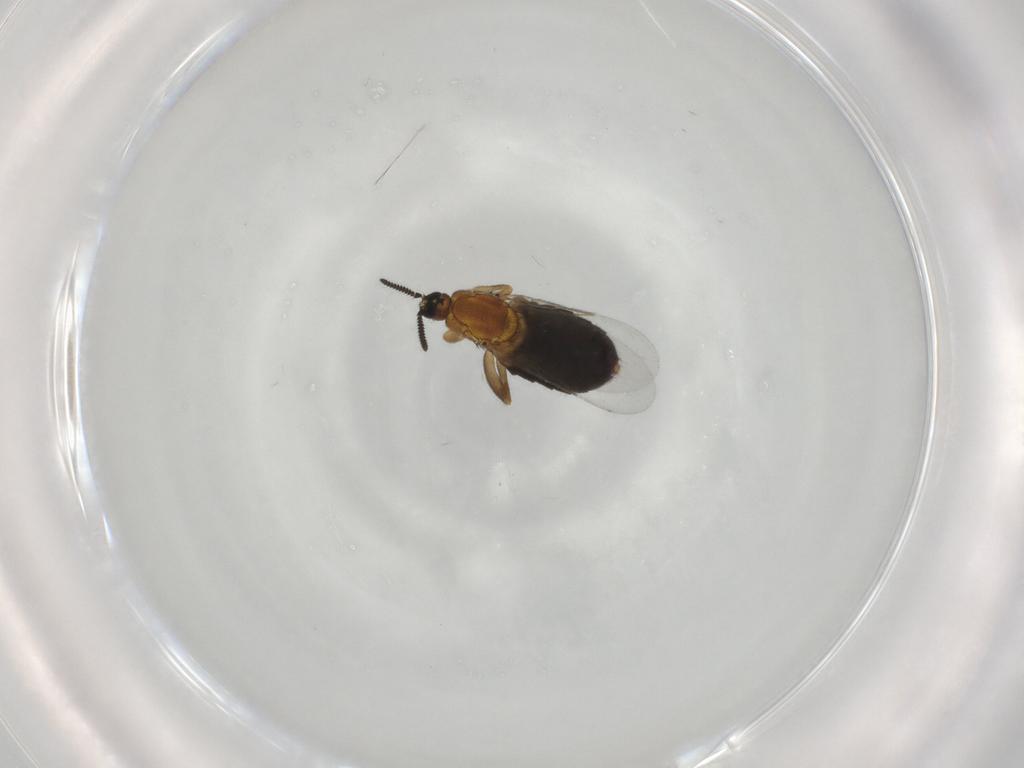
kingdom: Animalia
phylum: Arthropoda
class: Insecta
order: Diptera
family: Scatopsidae
